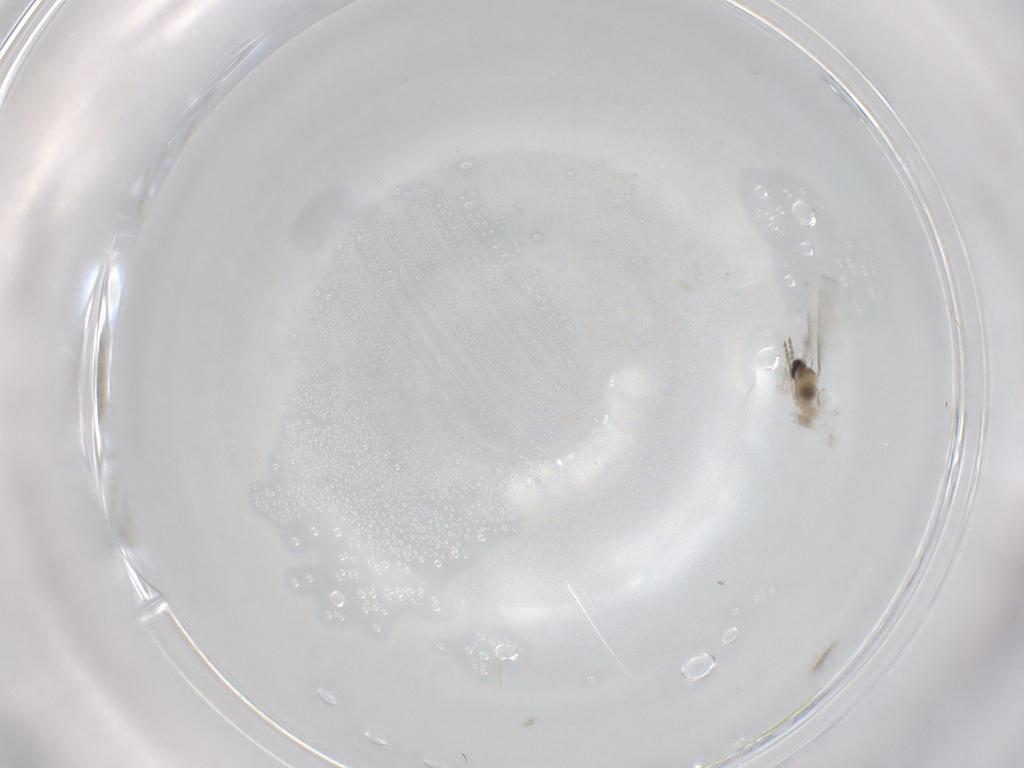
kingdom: Animalia
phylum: Arthropoda
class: Insecta
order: Diptera
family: Cecidomyiidae
